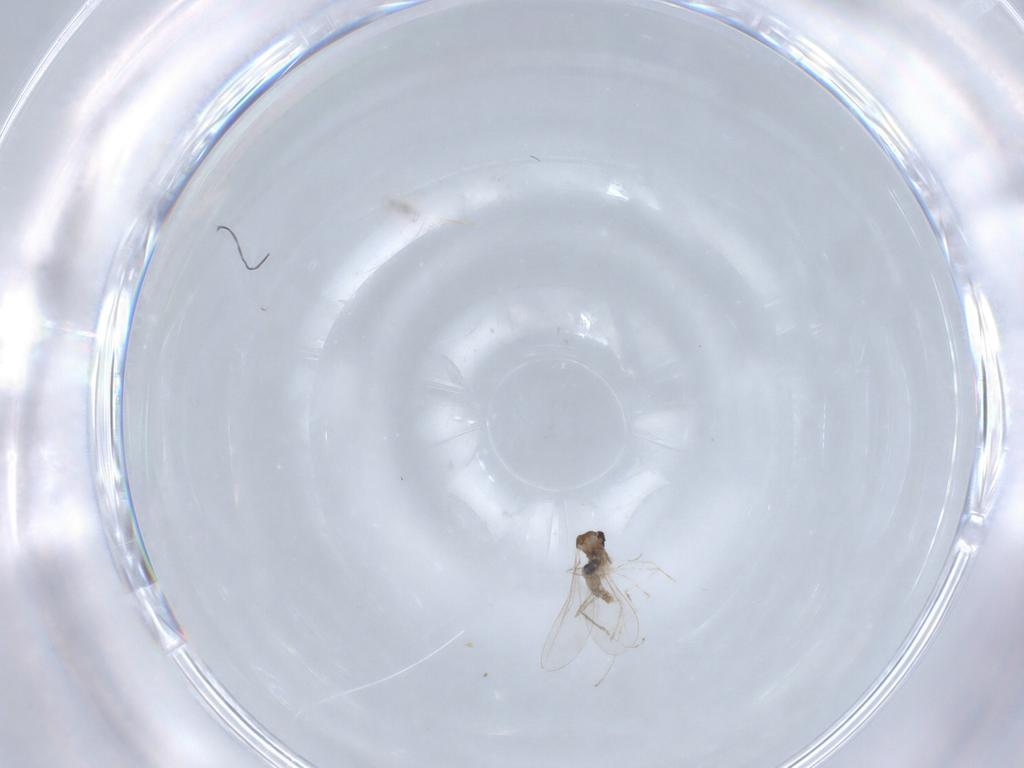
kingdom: Animalia
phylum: Arthropoda
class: Insecta
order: Diptera
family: Cecidomyiidae
